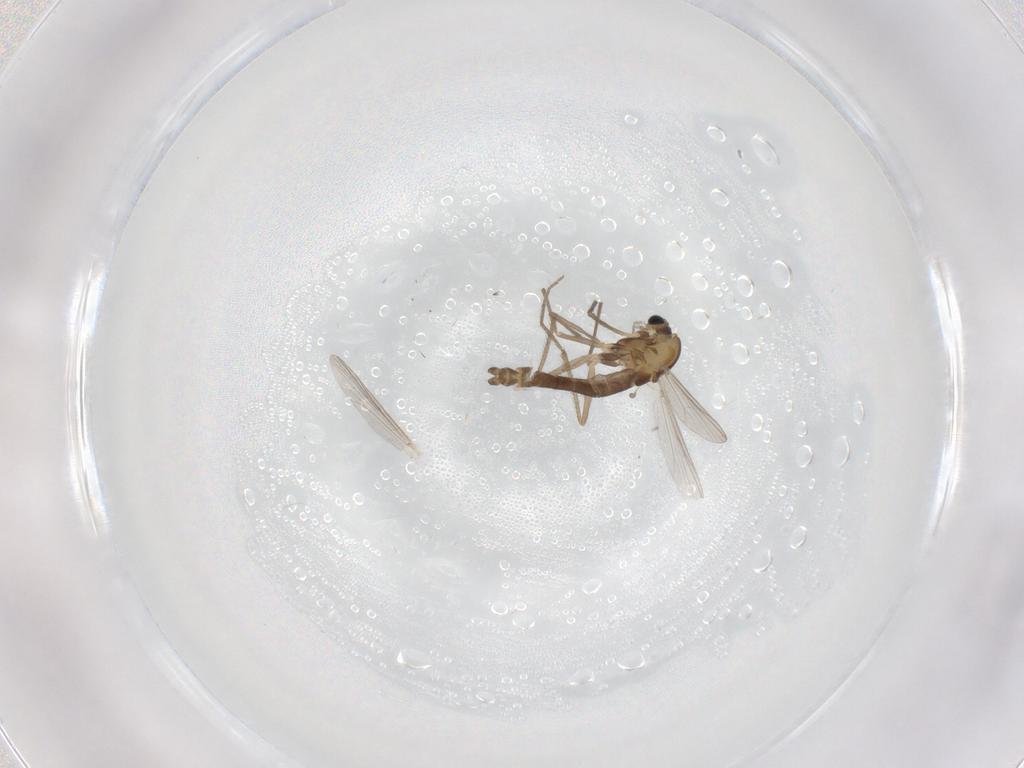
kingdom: Animalia
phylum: Arthropoda
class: Insecta
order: Diptera
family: Chironomidae
